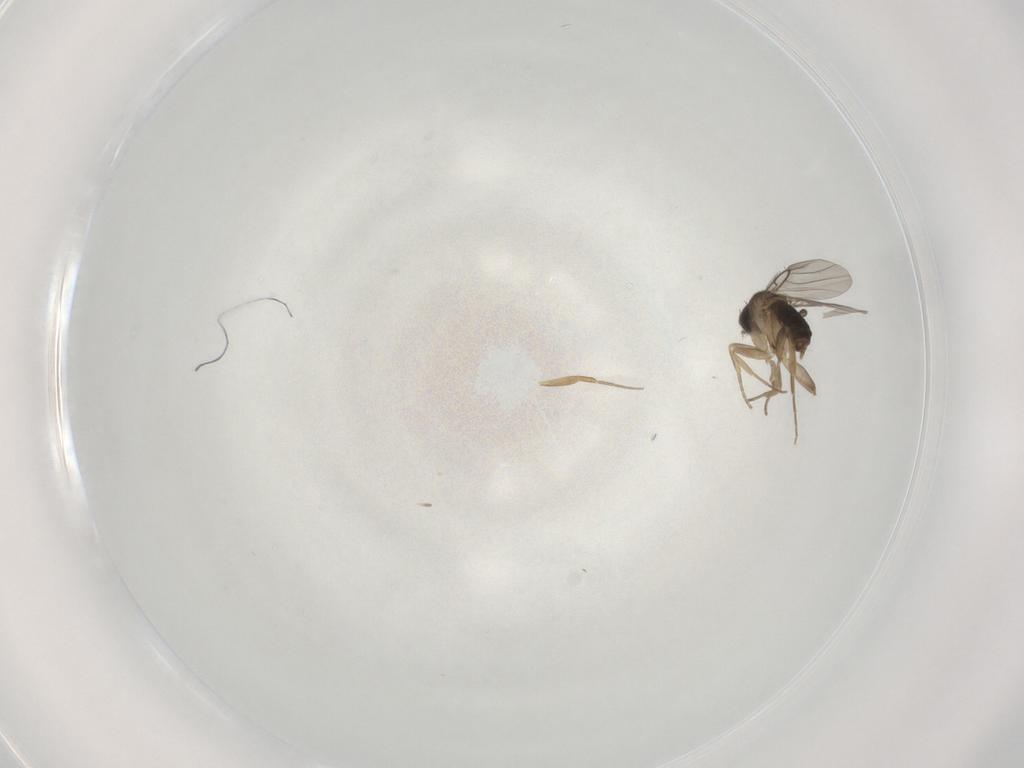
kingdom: Animalia
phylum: Arthropoda
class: Insecta
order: Diptera
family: Phoridae
